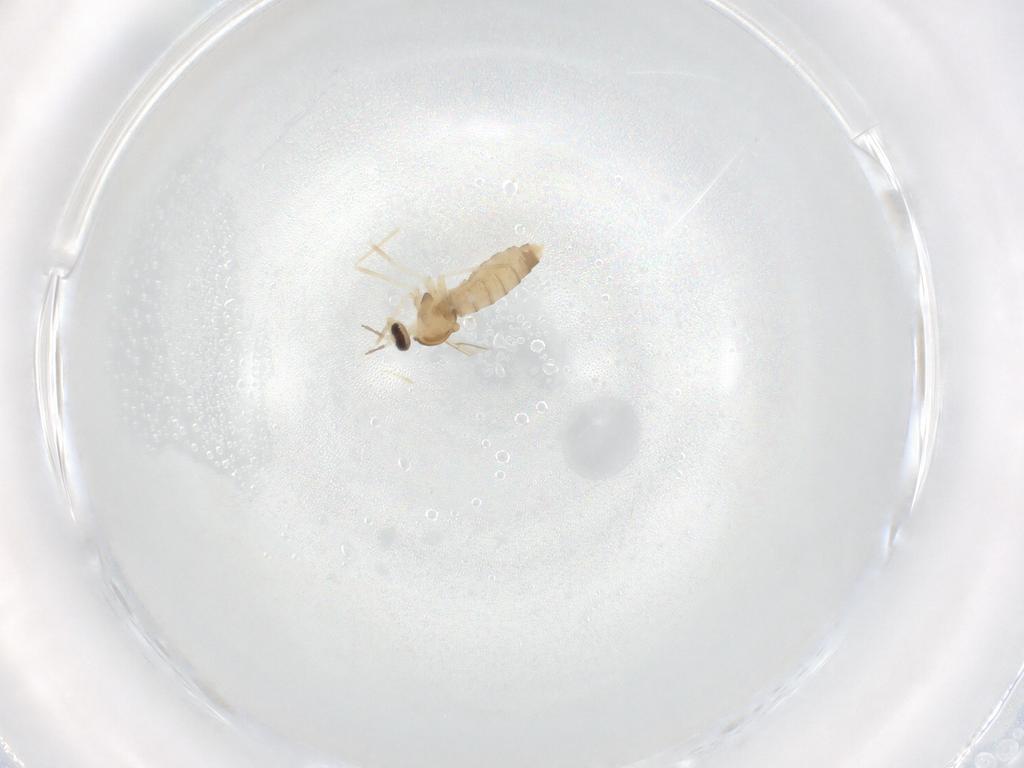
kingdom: Animalia
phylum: Arthropoda
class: Insecta
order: Diptera
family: Cecidomyiidae
